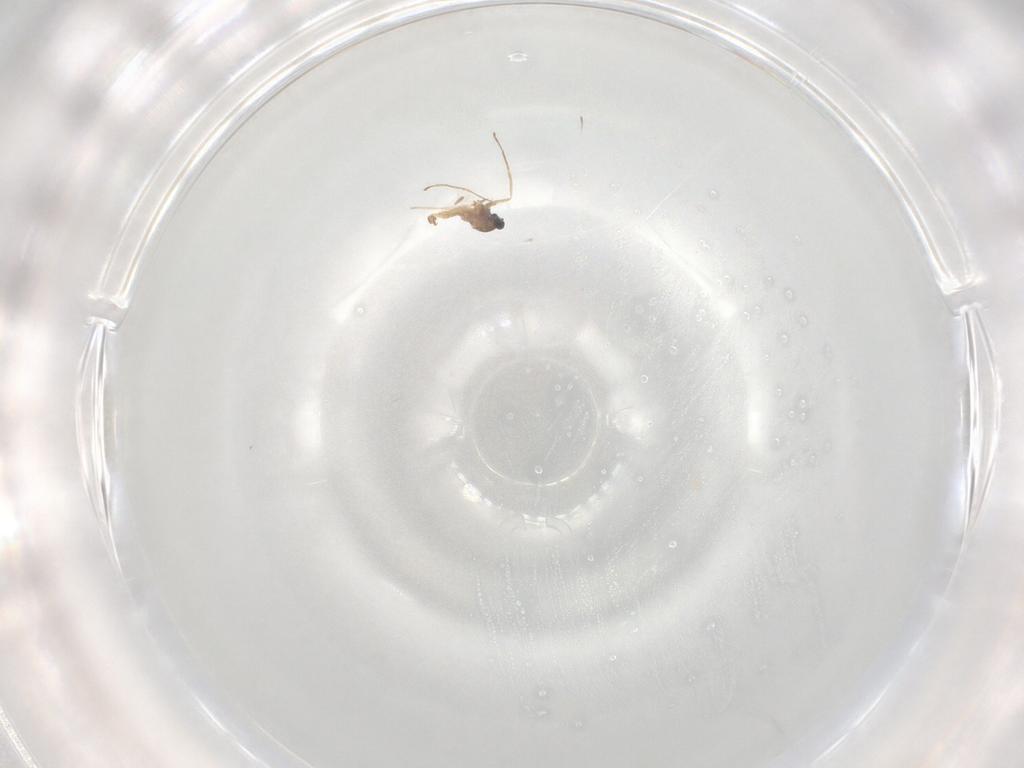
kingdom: Animalia
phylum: Arthropoda
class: Insecta
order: Diptera
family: Cecidomyiidae
